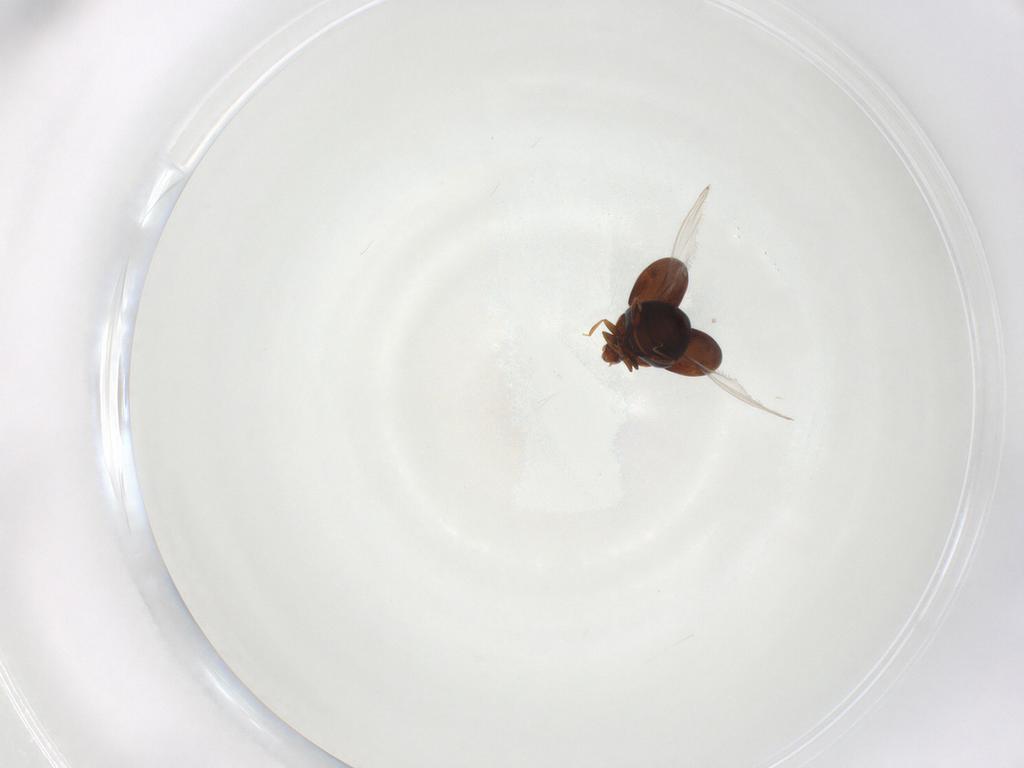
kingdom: Animalia
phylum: Arthropoda
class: Insecta
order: Coleoptera
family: Corylophidae
